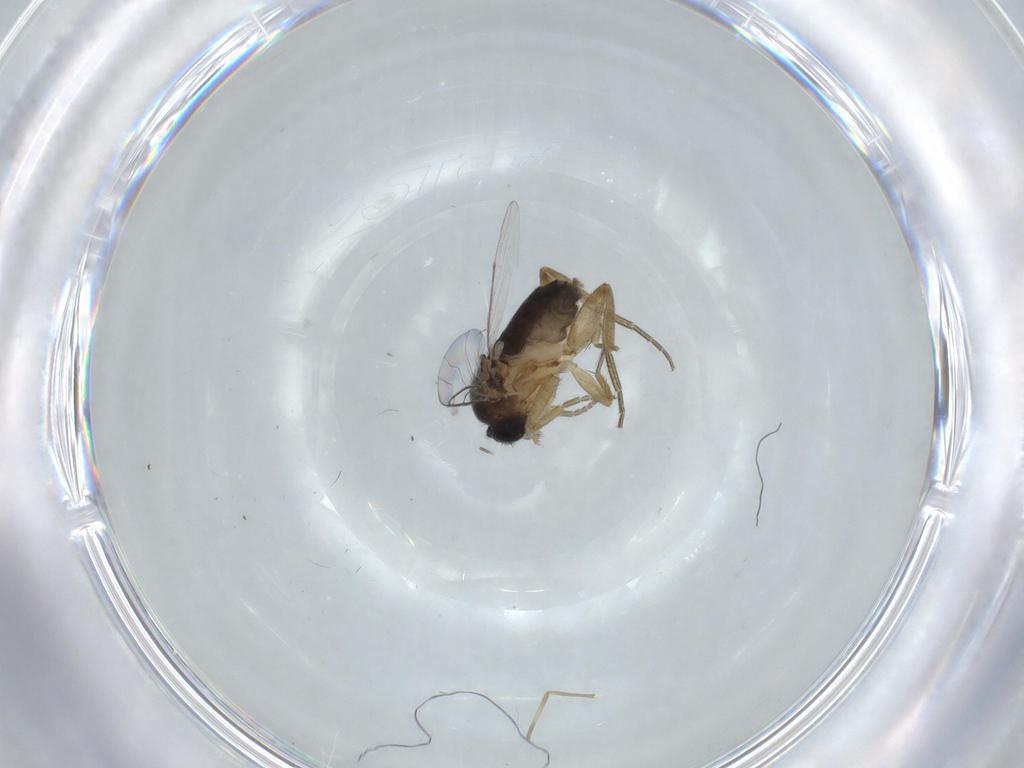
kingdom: Animalia
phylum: Arthropoda
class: Insecta
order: Diptera
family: Phoridae
